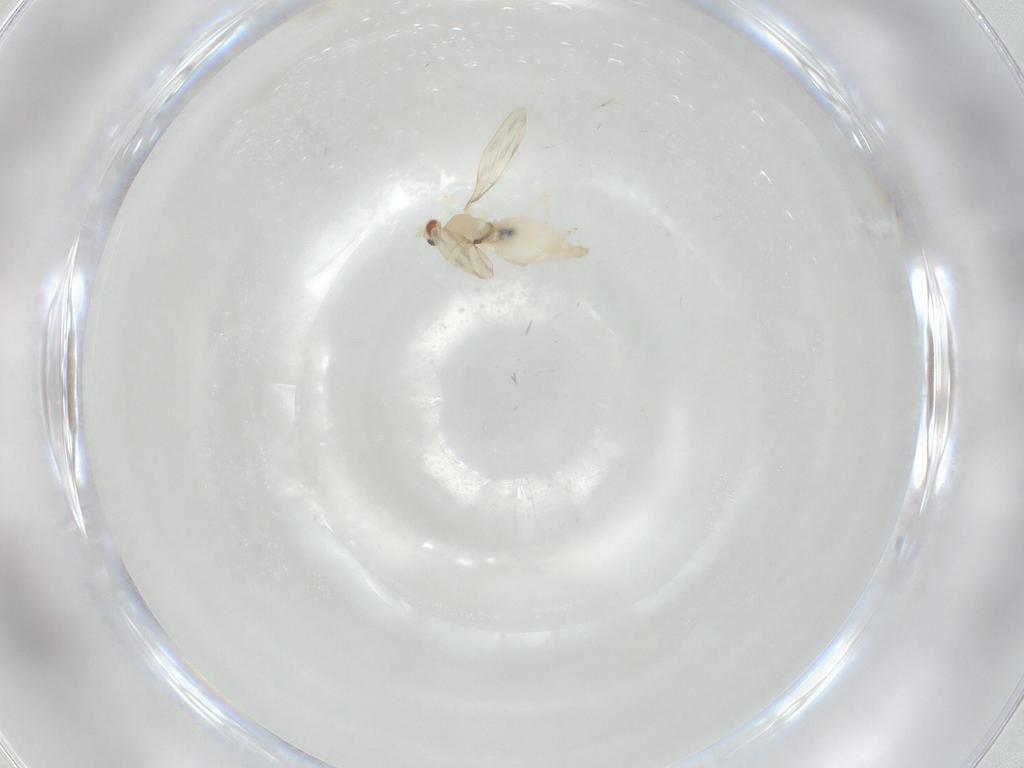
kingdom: Animalia
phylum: Arthropoda
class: Insecta
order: Diptera
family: Cecidomyiidae
